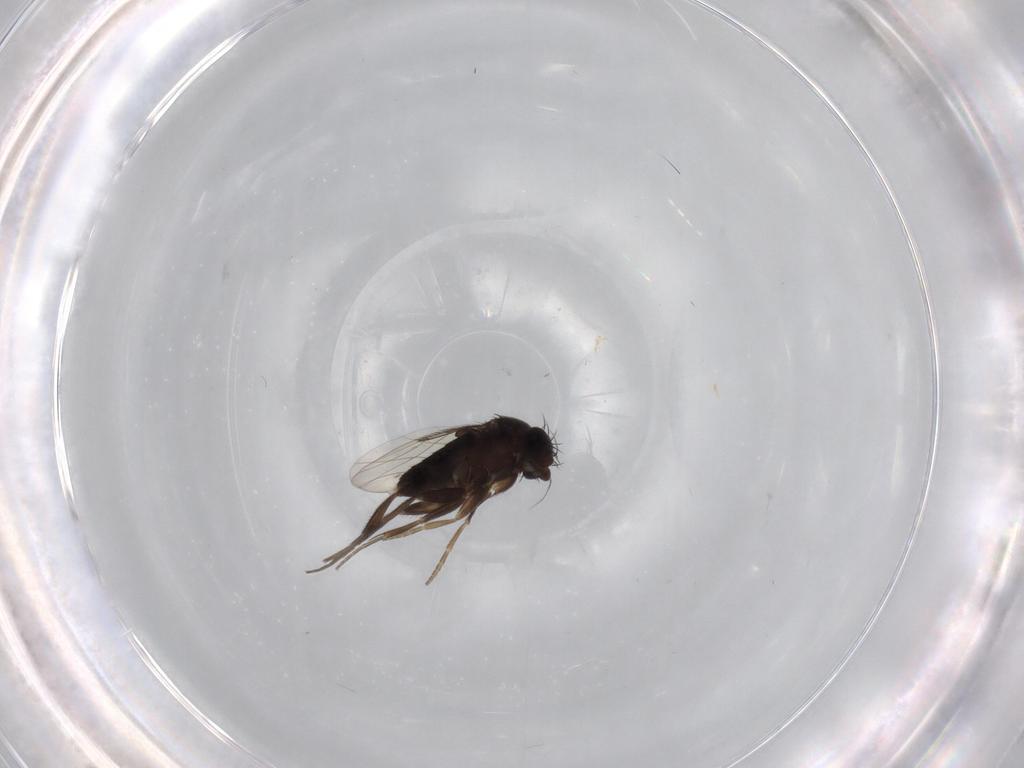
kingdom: Animalia
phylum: Arthropoda
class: Insecta
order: Diptera
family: Phoridae
